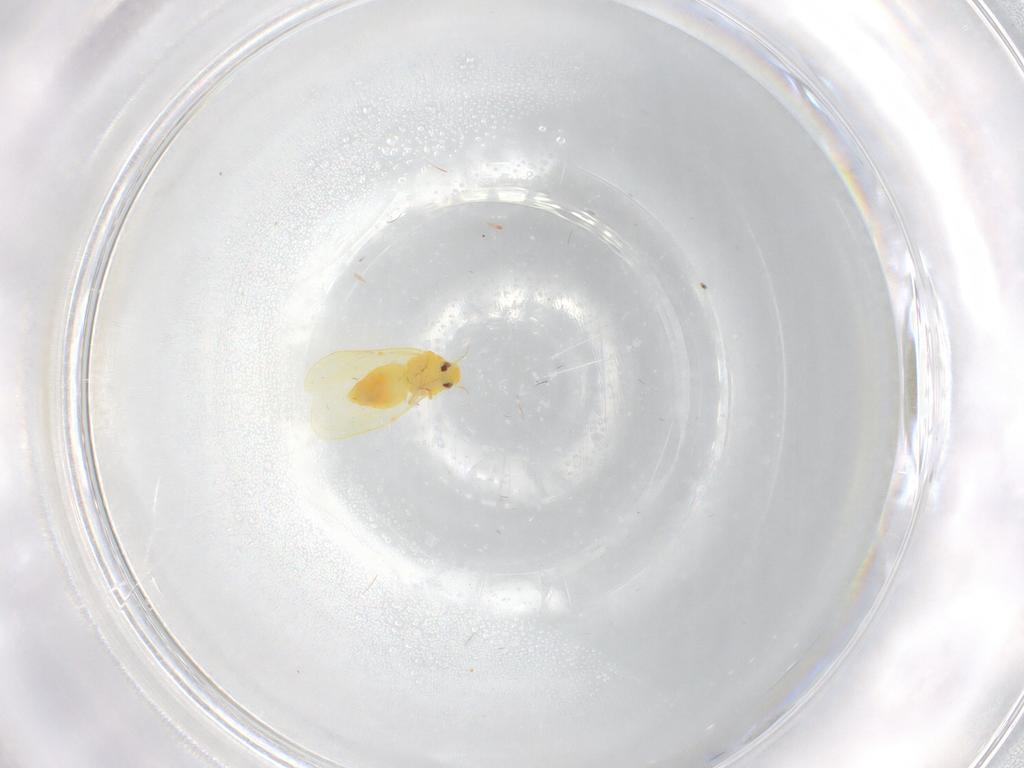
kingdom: Animalia
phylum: Arthropoda
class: Insecta
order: Hemiptera
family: Aleyrodidae
